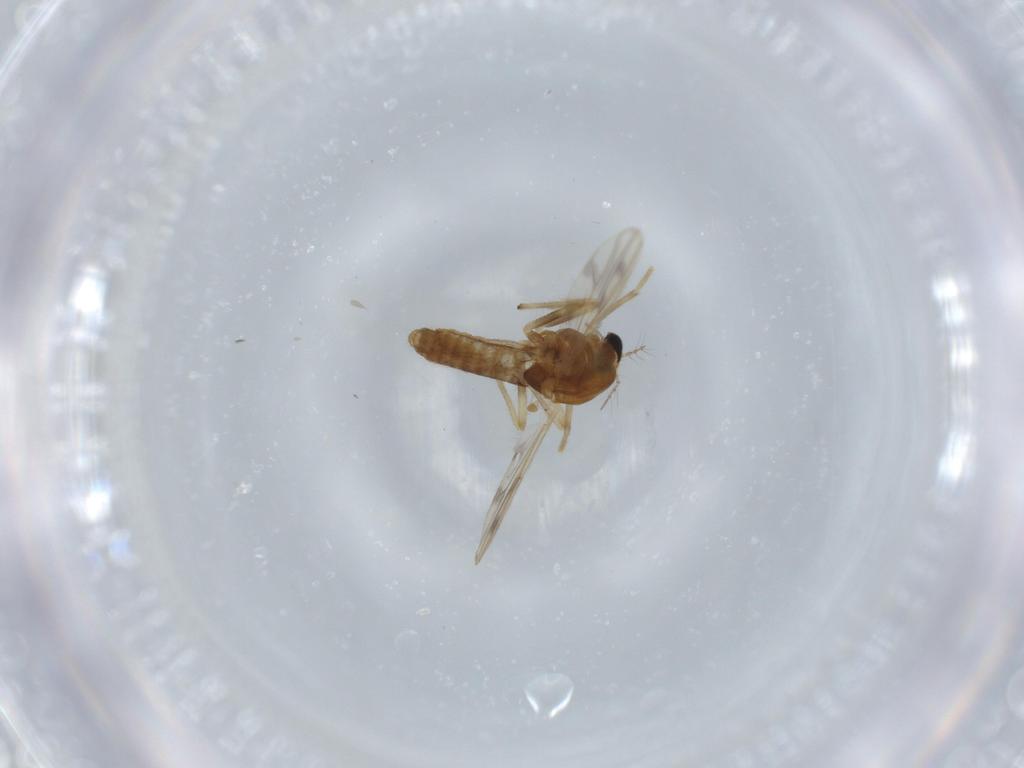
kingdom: Animalia
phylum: Arthropoda
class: Insecta
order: Diptera
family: Chironomidae
